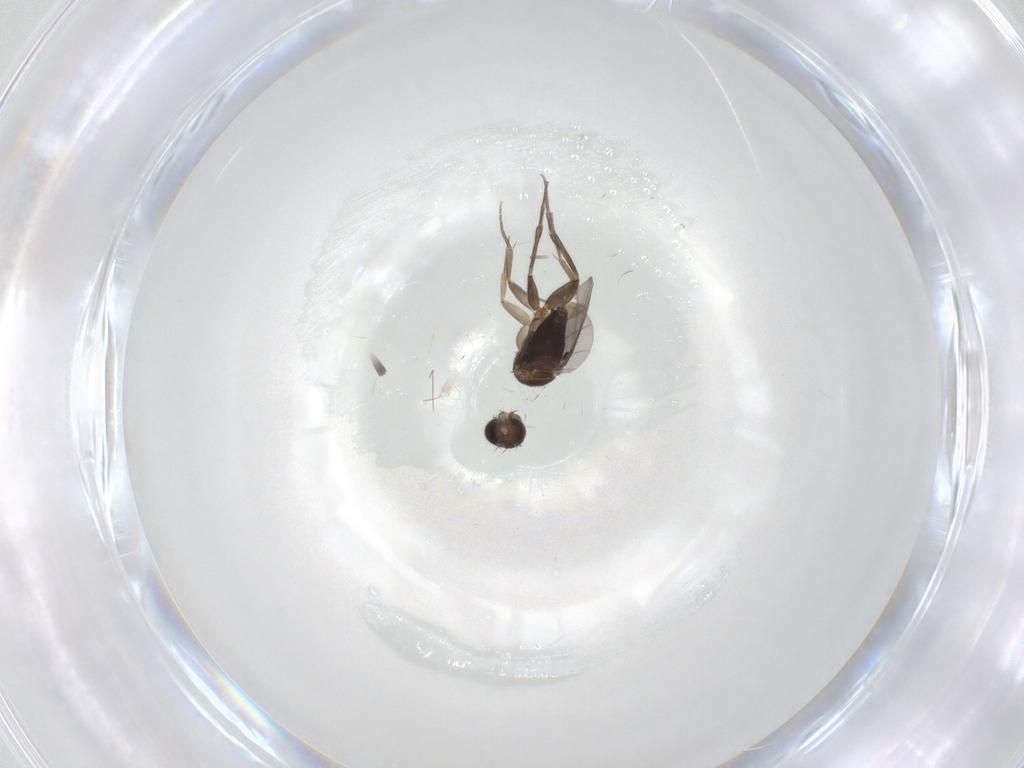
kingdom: Animalia
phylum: Arthropoda
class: Insecta
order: Diptera
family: Phoridae
